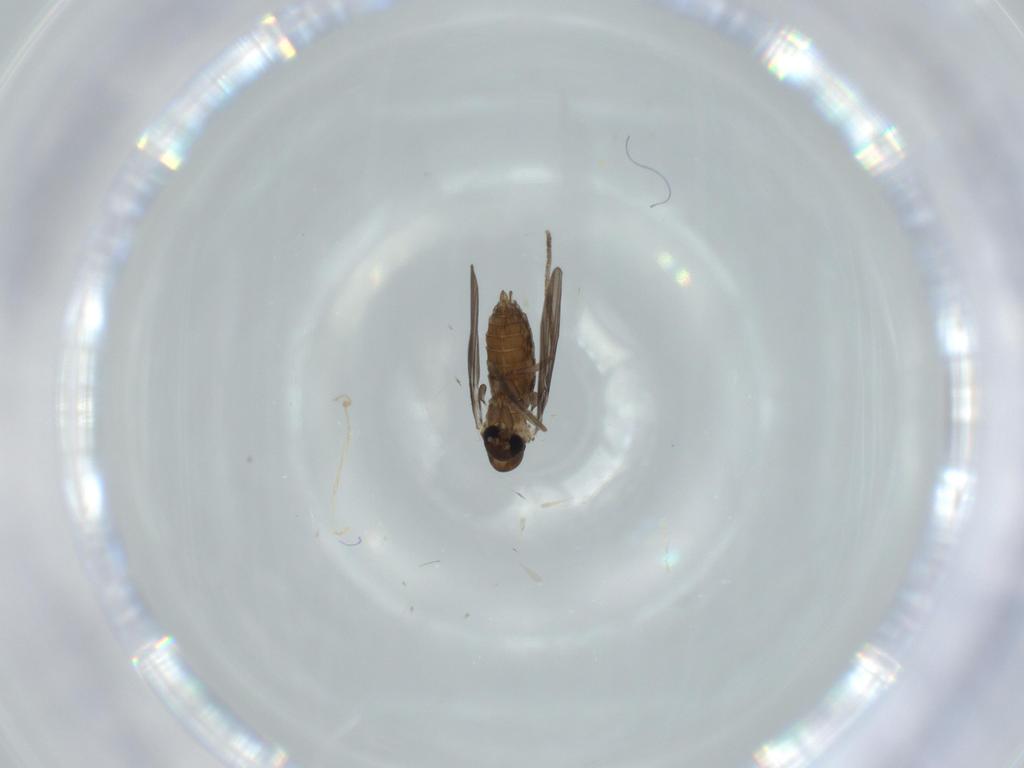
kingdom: Animalia
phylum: Arthropoda
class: Insecta
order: Diptera
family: Psychodidae
